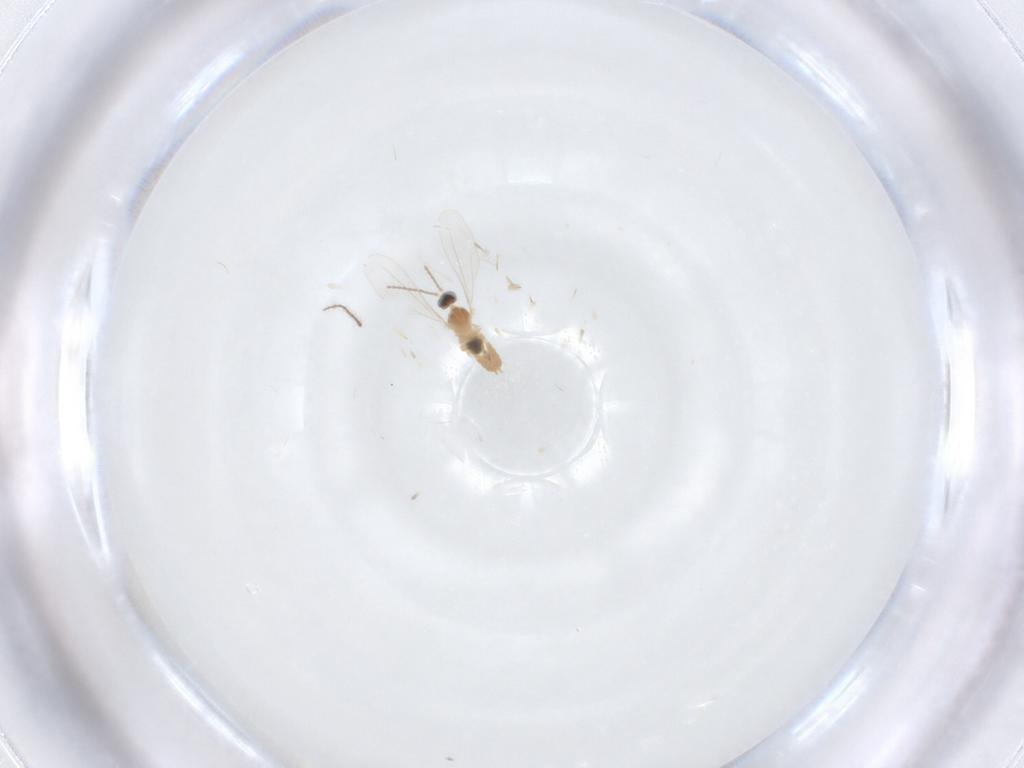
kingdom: Animalia
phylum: Arthropoda
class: Insecta
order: Diptera
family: Cecidomyiidae
